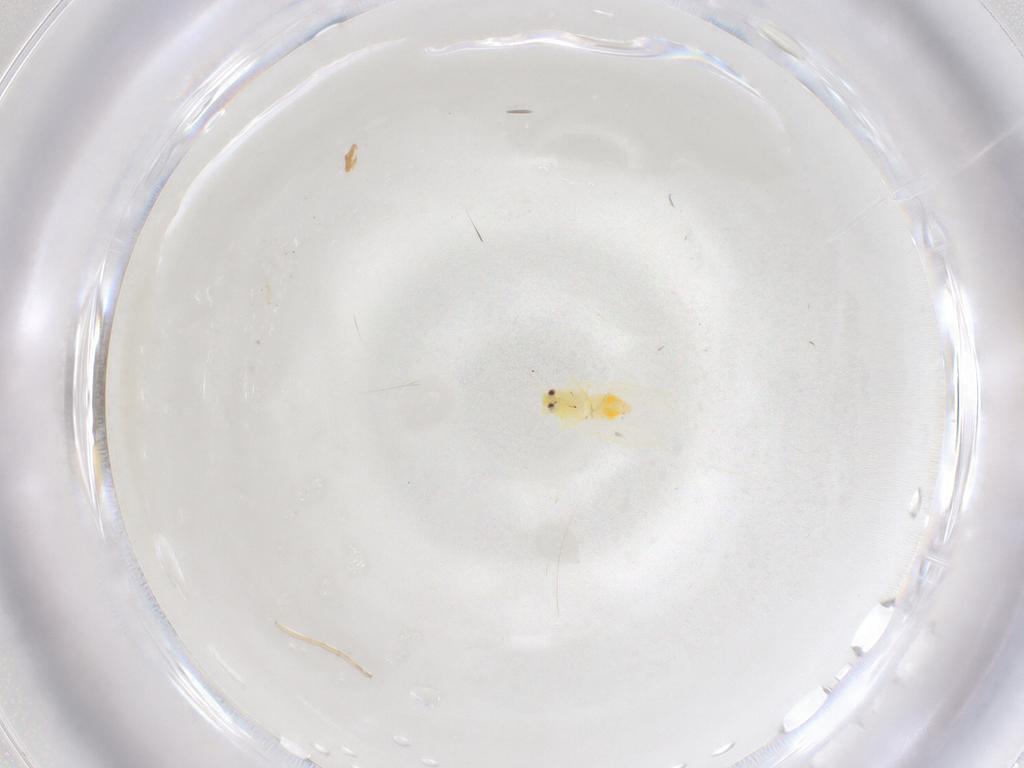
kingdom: Animalia
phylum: Arthropoda
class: Insecta
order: Hemiptera
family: Aleyrodidae
